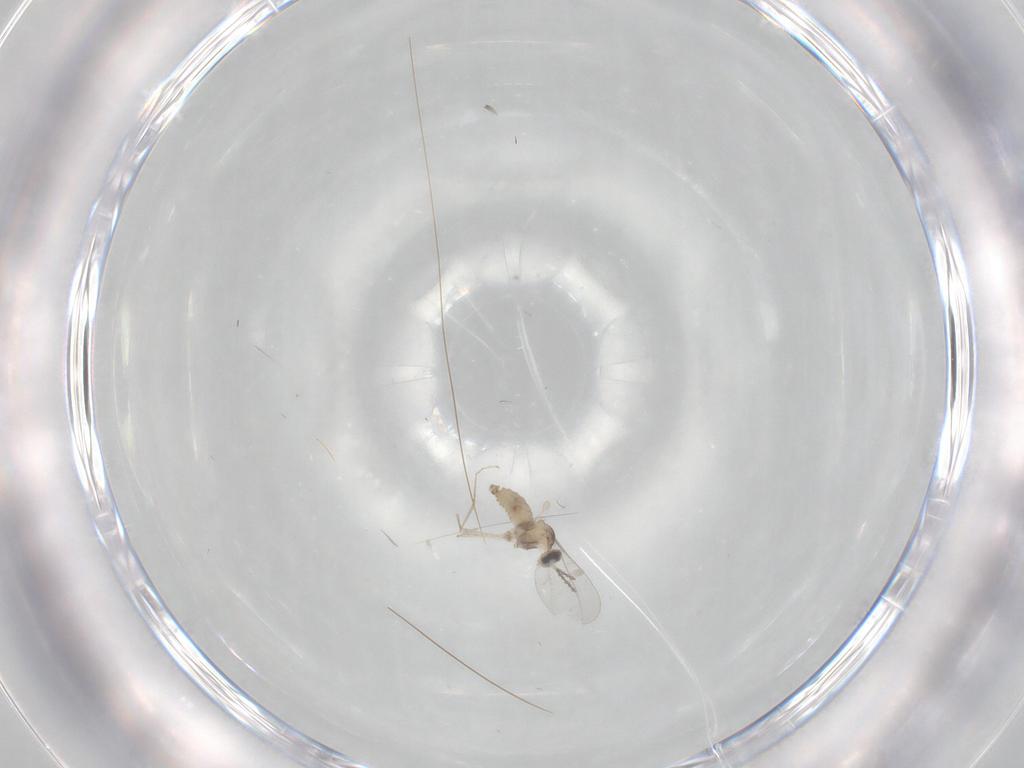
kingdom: Animalia
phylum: Arthropoda
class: Insecta
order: Diptera
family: Cecidomyiidae
